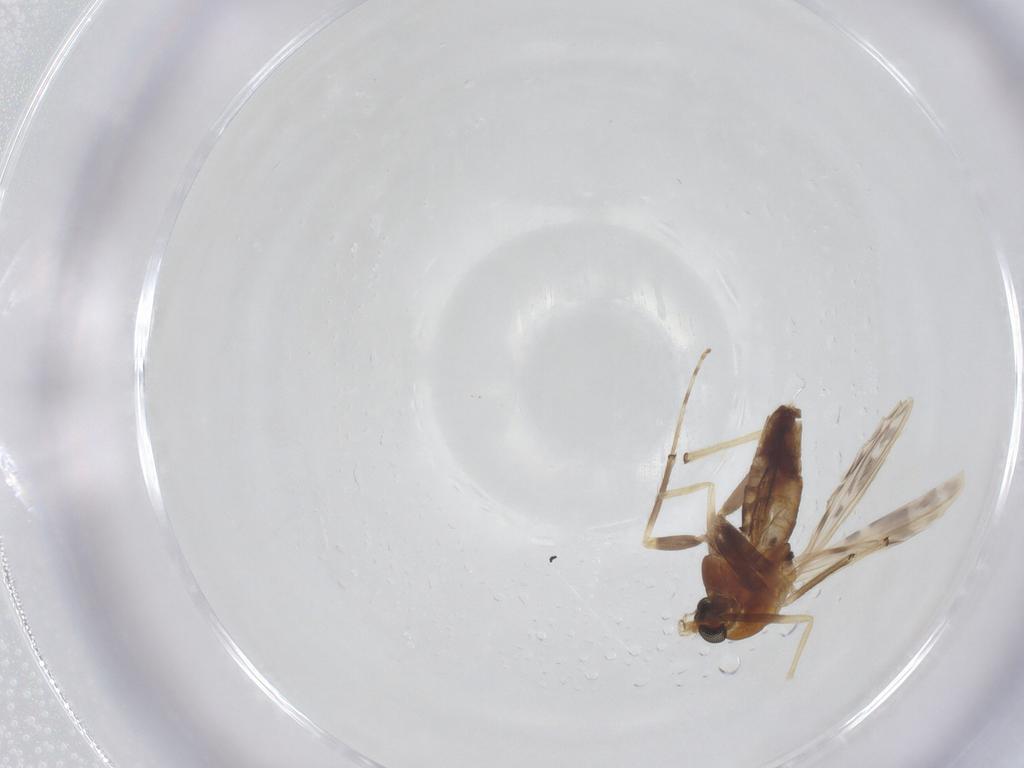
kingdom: Animalia
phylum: Arthropoda
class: Insecta
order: Diptera
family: Chironomidae
